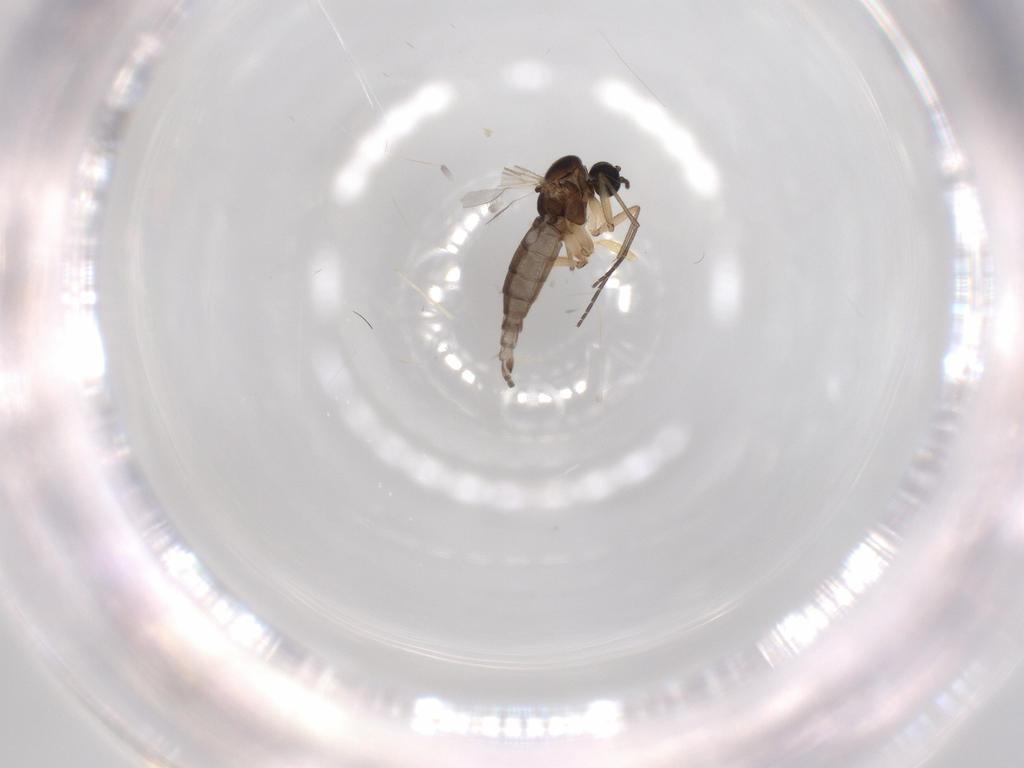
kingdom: Animalia
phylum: Arthropoda
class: Insecta
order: Diptera
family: Sciaridae
